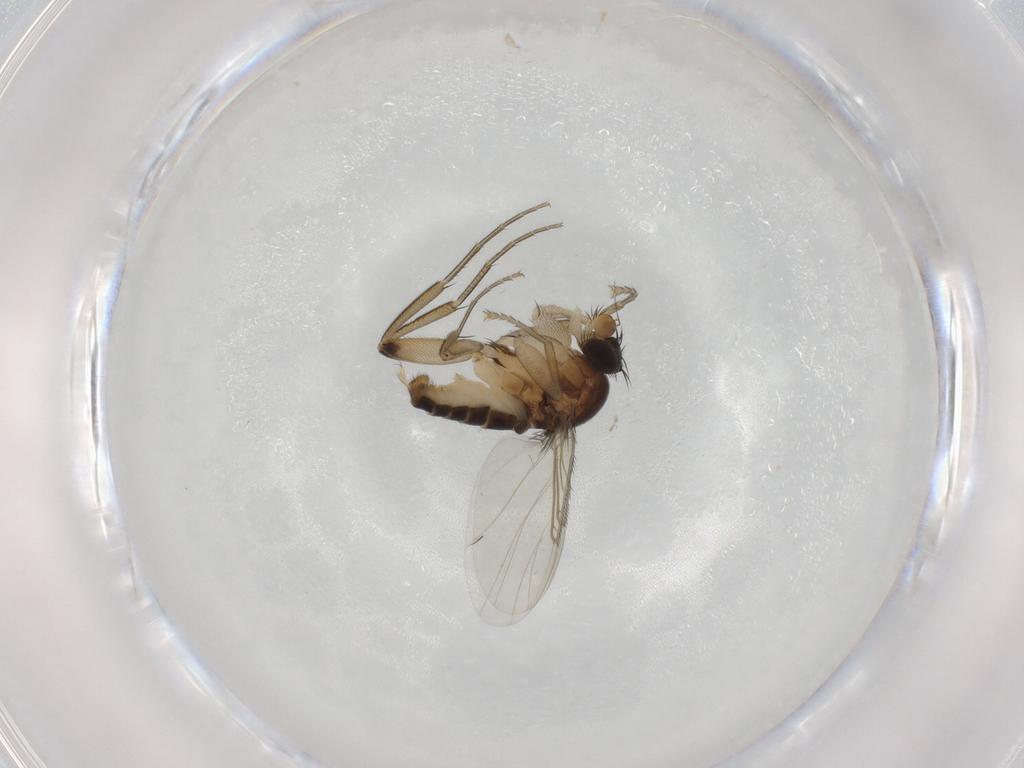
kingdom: Animalia
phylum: Arthropoda
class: Insecta
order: Diptera
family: Phoridae
